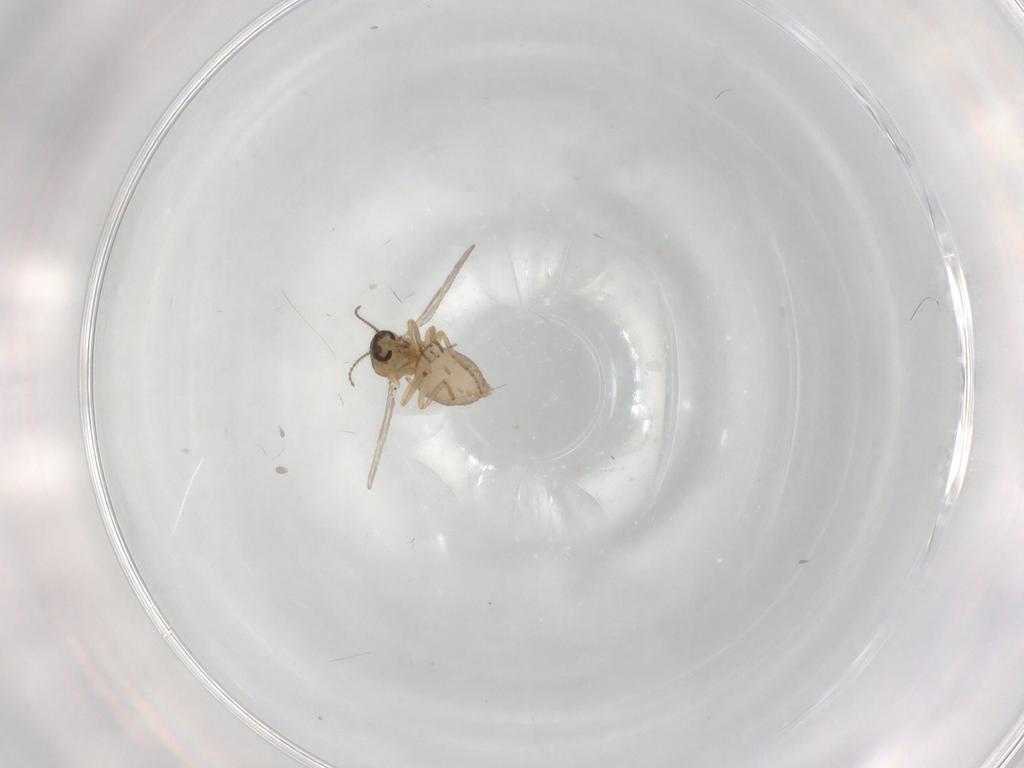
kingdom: Animalia
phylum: Arthropoda
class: Insecta
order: Diptera
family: Ceratopogonidae
